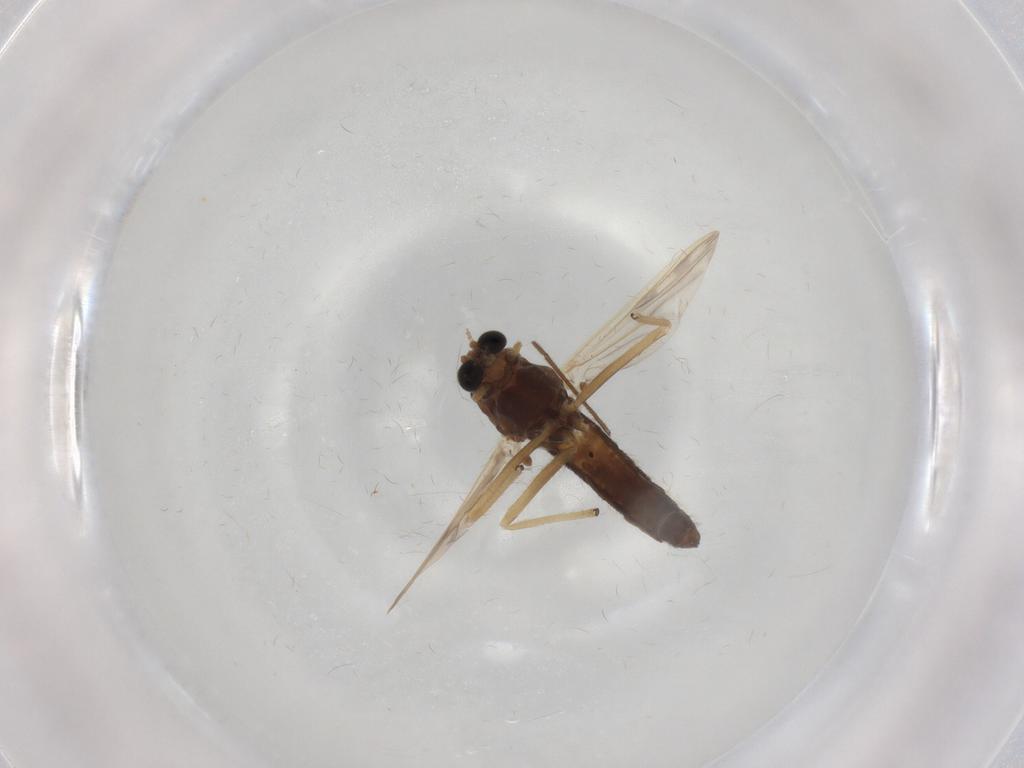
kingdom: Animalia
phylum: Arthropoda
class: Insecta
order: Diptera
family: Chironomidae
